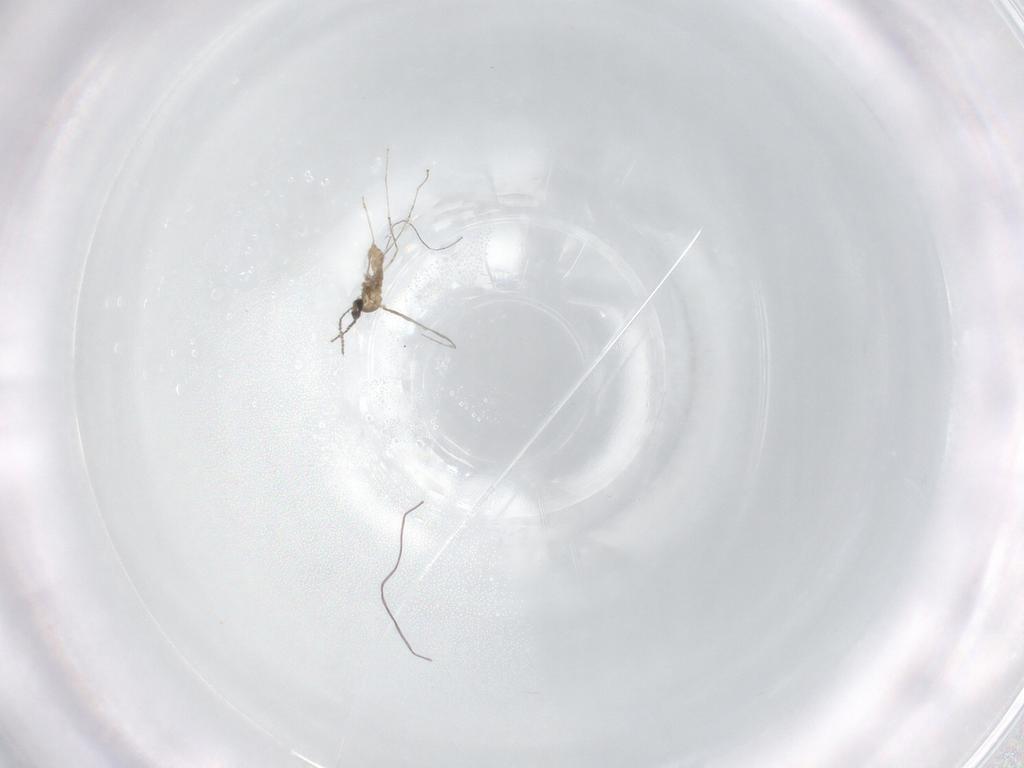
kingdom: Animalia
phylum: Arthropoda
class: Insecta
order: Diptera
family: Cecidomyiidae
